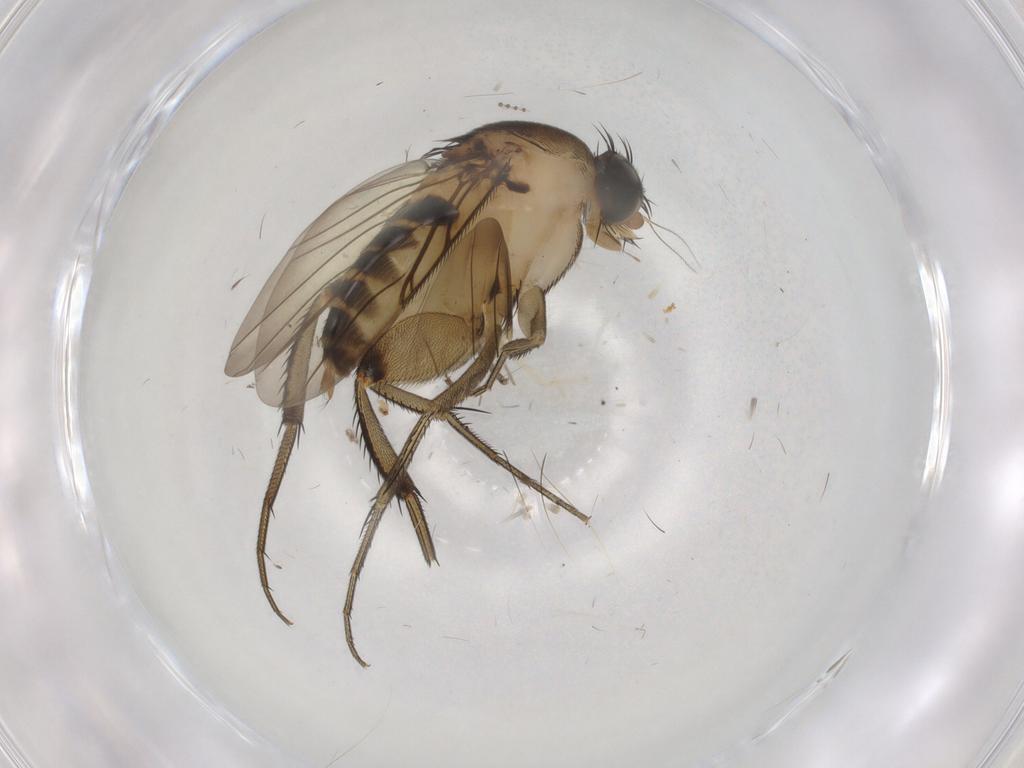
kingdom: Animalia
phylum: Arthropoda
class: Insecta
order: Diptera
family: Psychodidae
